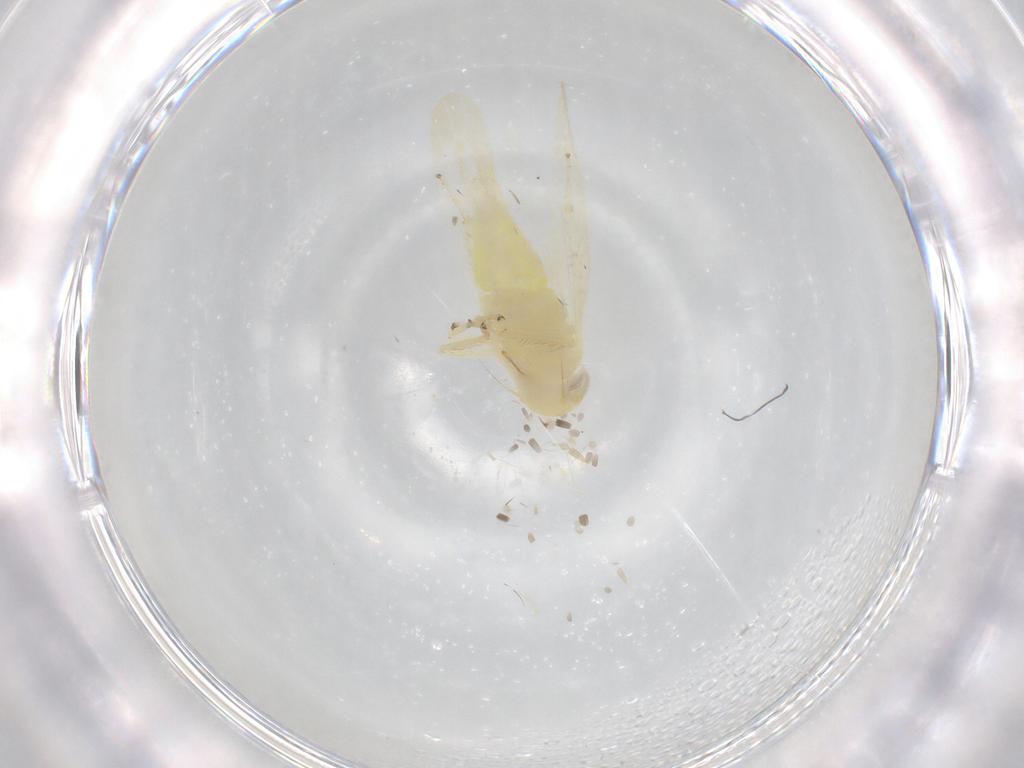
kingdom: Animalia
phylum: Arthropoda
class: Insecta
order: Hemiptera
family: Cicadellidae
